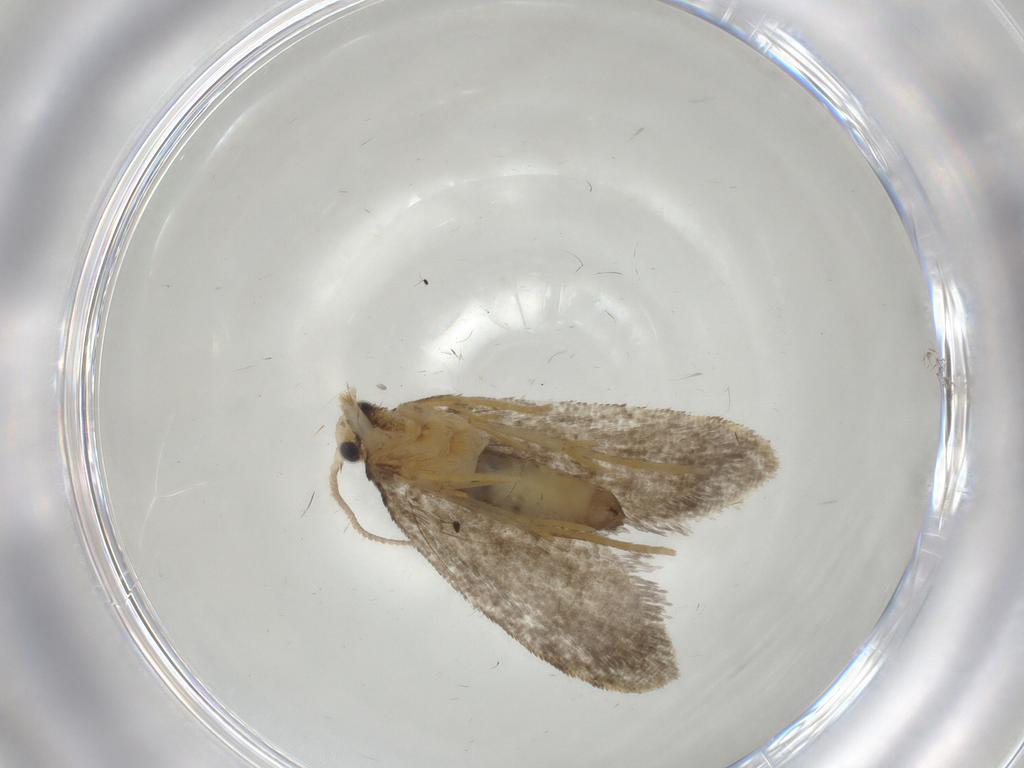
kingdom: Animalia
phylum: Arthropoda
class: Insecta
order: Lepidoptera
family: Psychidae
